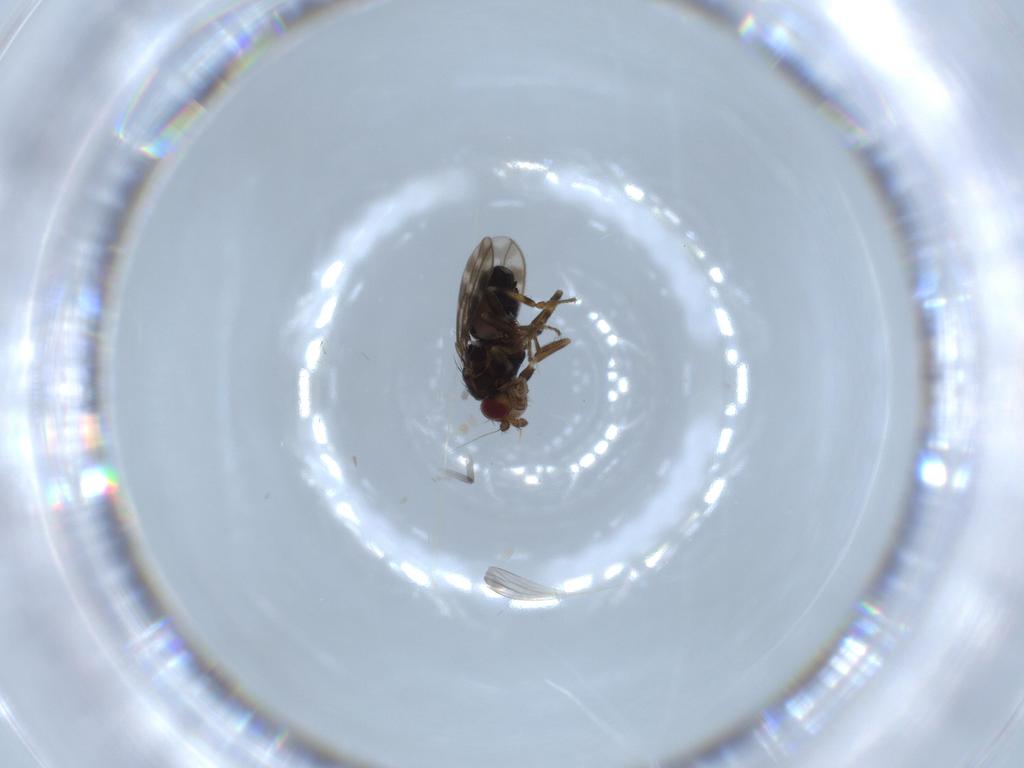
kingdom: Animalia
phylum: Arthropoda
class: Insecta
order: Diptera
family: Sphaeroceridae
